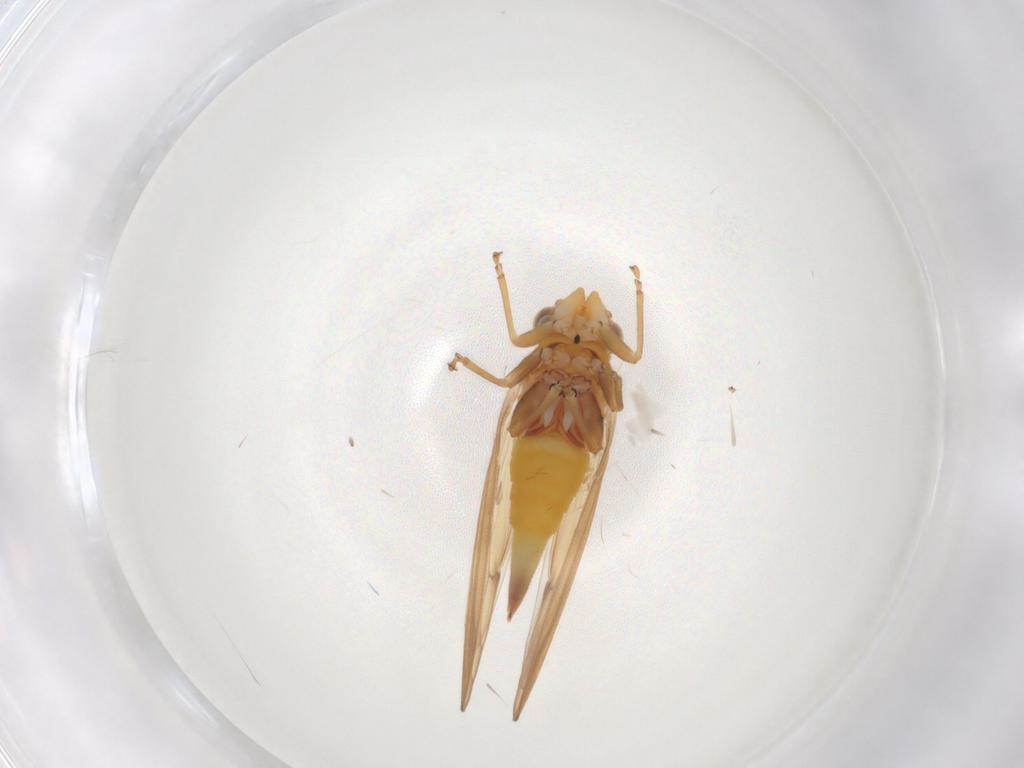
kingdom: Animalia
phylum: Arthropoda
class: Insecta
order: Hemiptera
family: Psylloidea_incertae_sedis
